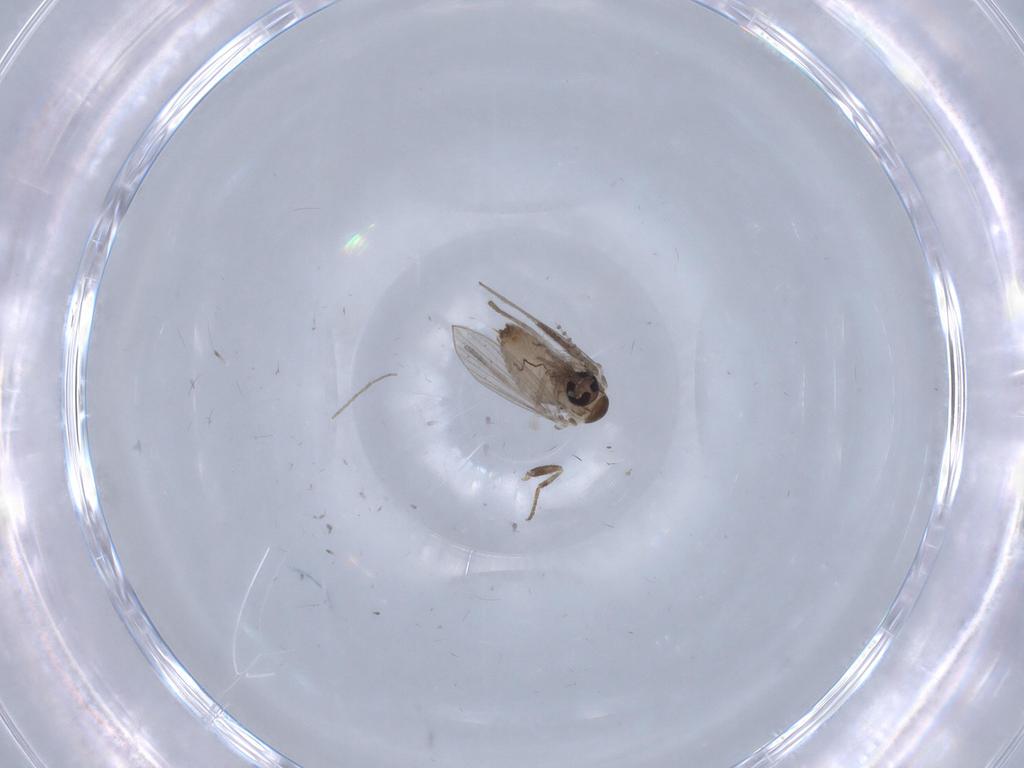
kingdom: Animalia
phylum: Arthropoda
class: Insecta
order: Diptera
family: Psychodidae
